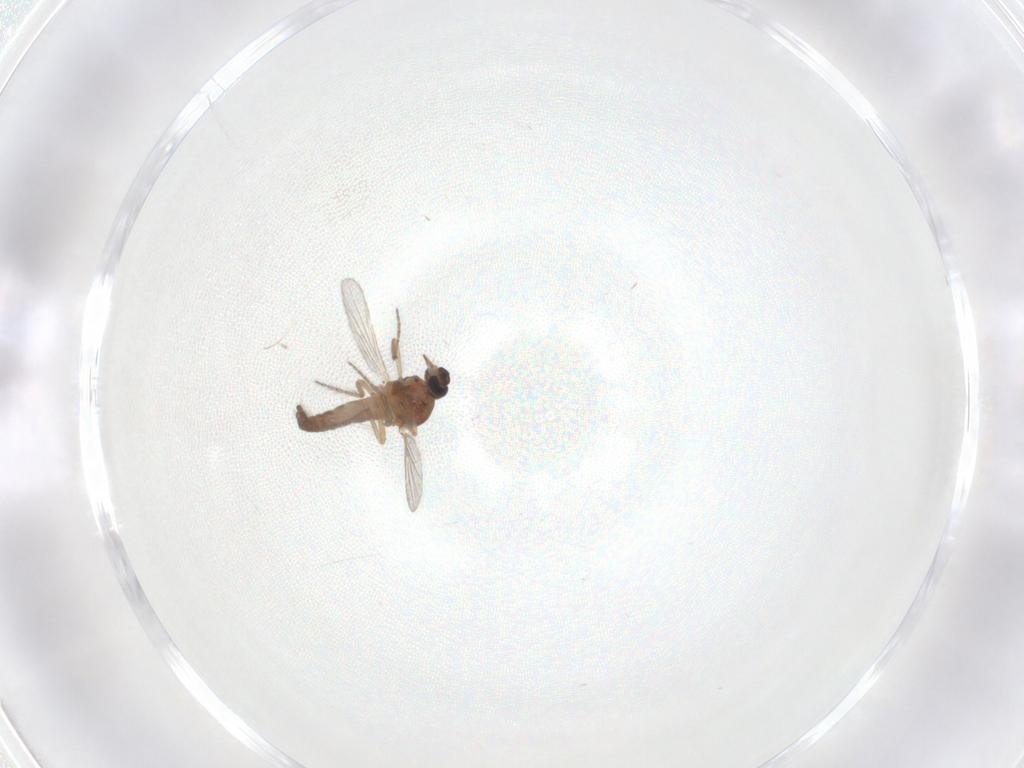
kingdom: Animalia
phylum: Arthropoda
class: Insecta
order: Diptera
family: Ceratopogonidae
